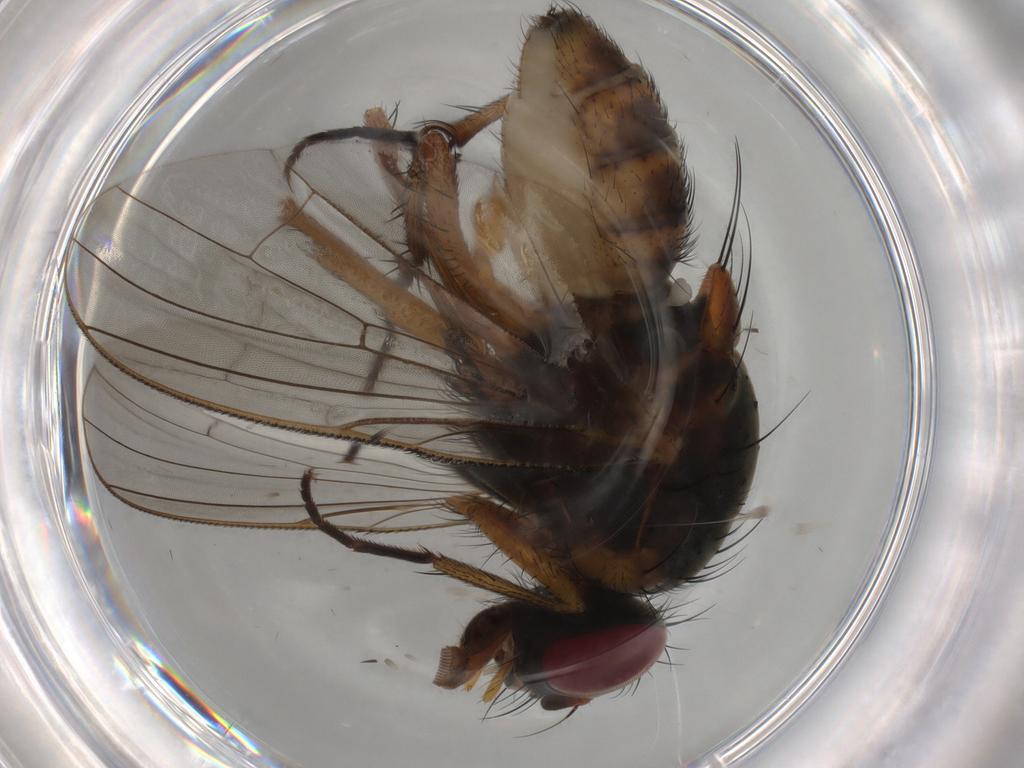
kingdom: Animalia
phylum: Arthropoda
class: Insecta
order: Diptera
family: Anthomyiidae
